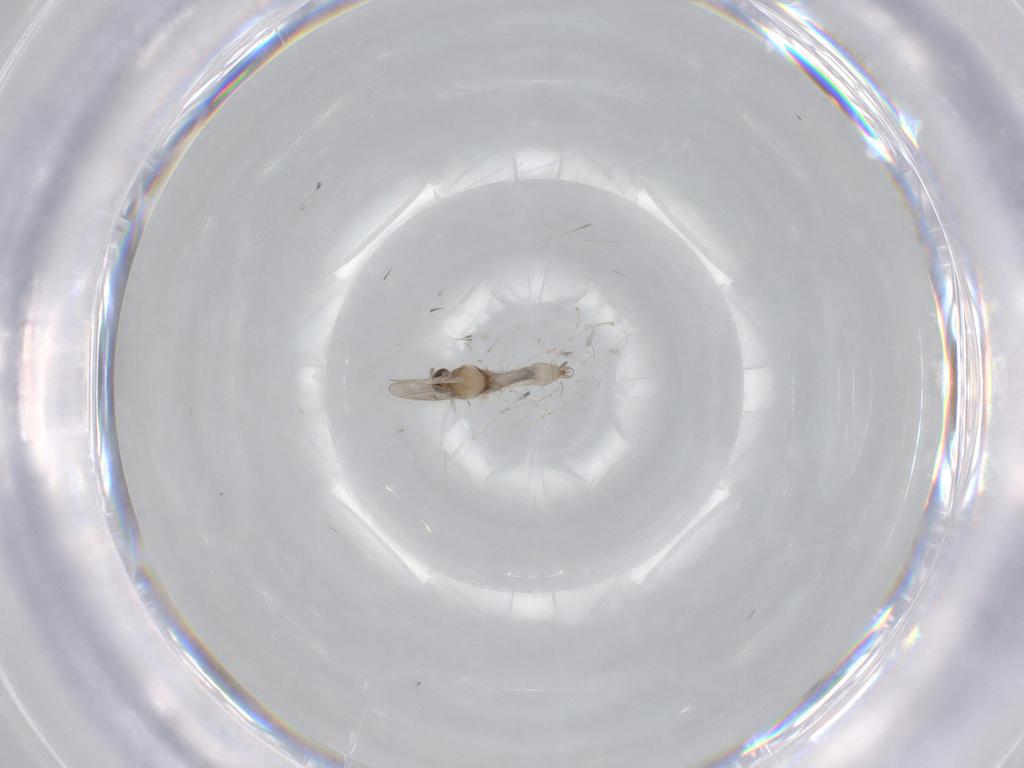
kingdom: Animalia
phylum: Arthropoda
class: Insecta
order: Diptera
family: Cecidomyiidae
